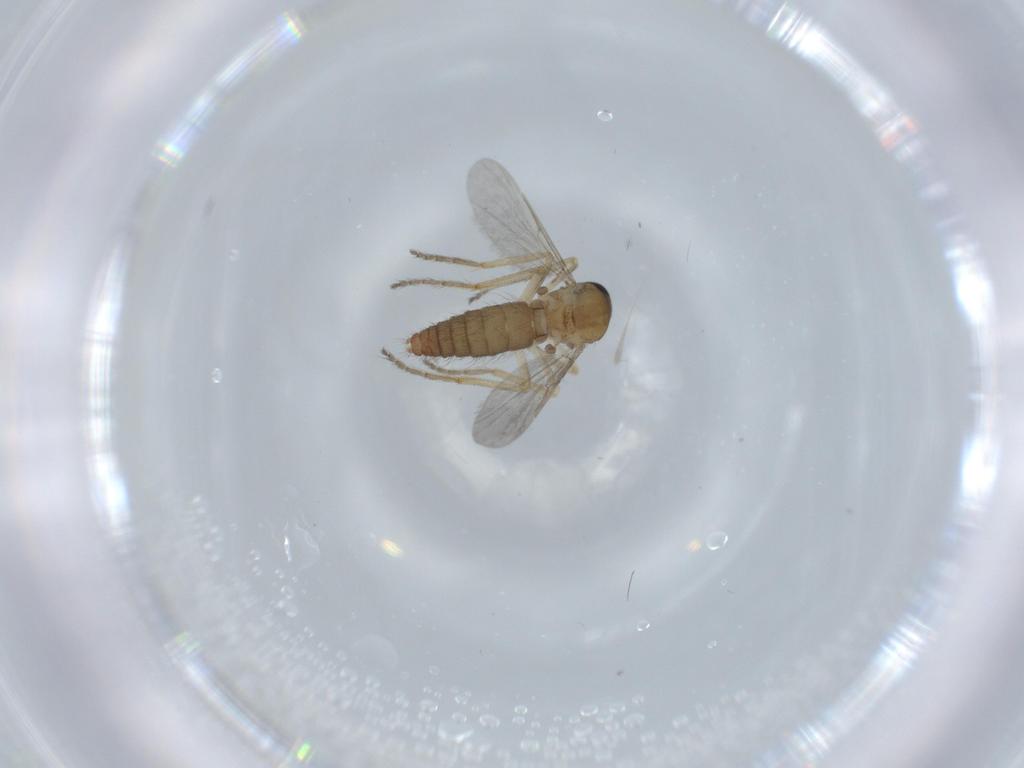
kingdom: Animalia
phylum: Arthropoda
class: Insecta
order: Diptera
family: Ceratopogonidae
